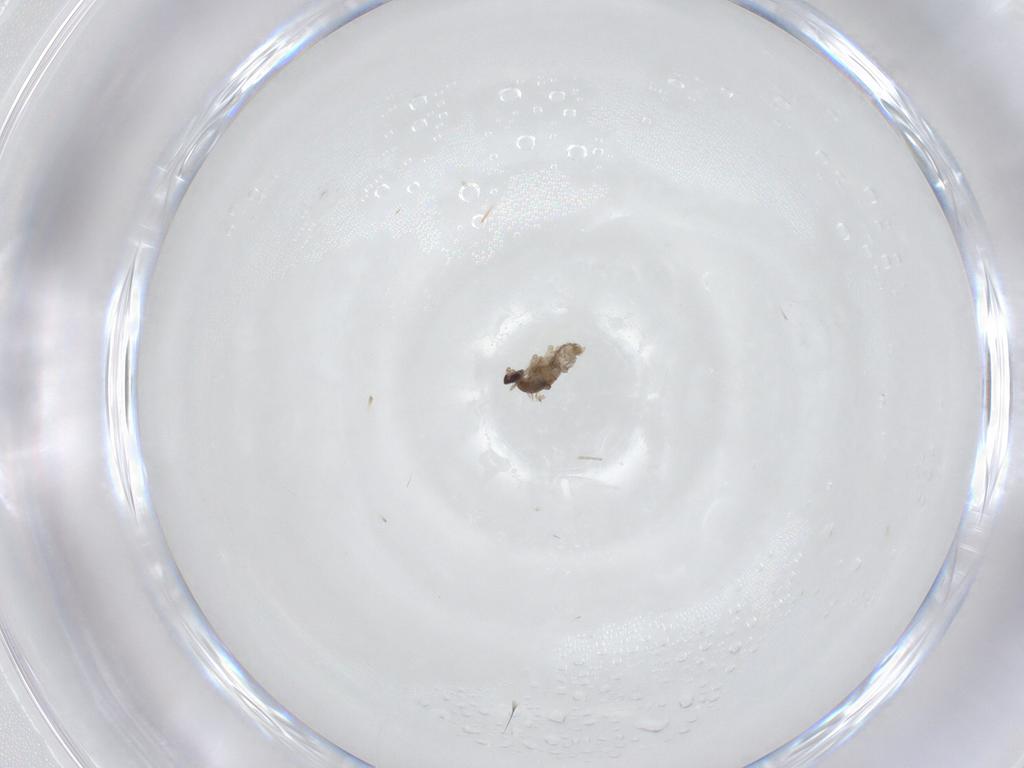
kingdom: Animalia
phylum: Arthropoda
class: Insecta
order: Diptera
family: Cecidomyiidae
